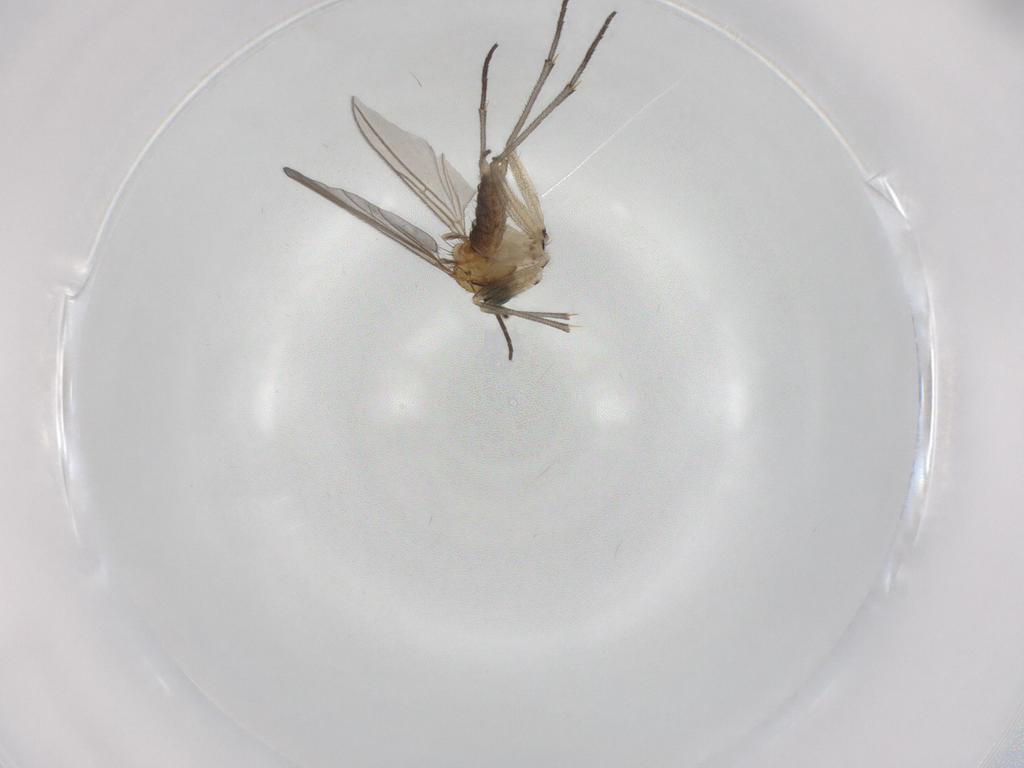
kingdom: Animalia
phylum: Arthropoda
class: Insecta
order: Diptera
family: Sciaridae
